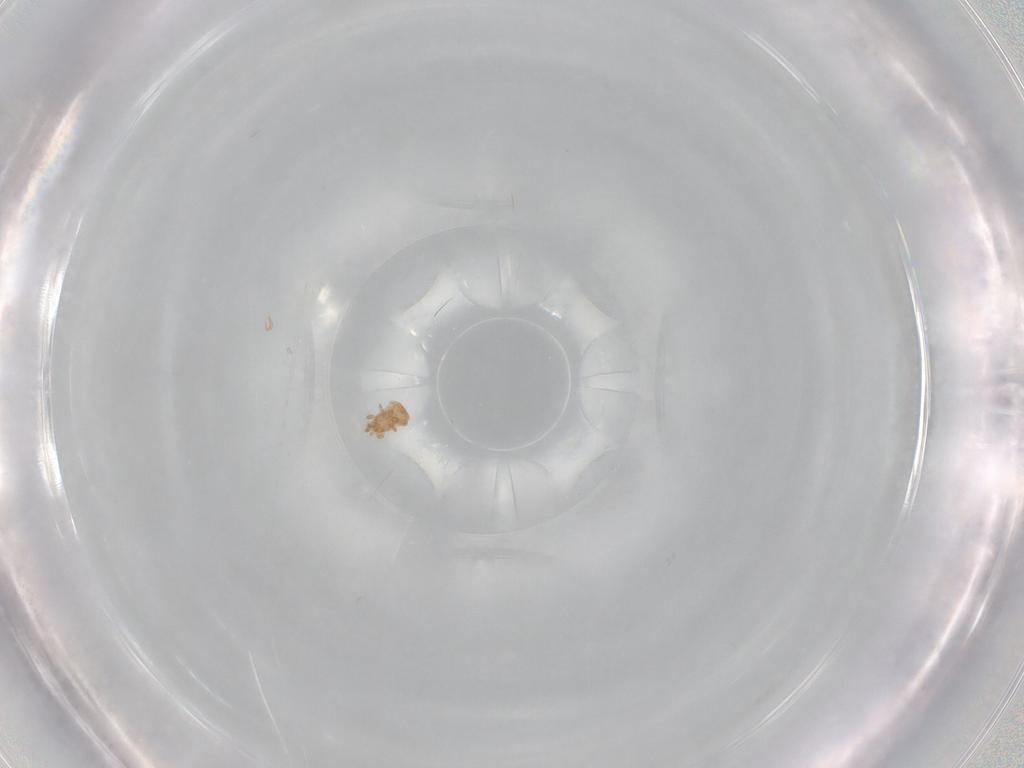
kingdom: Animalia
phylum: Arthropoda
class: Arachnida
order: Mesostigmata
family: Ascidae
